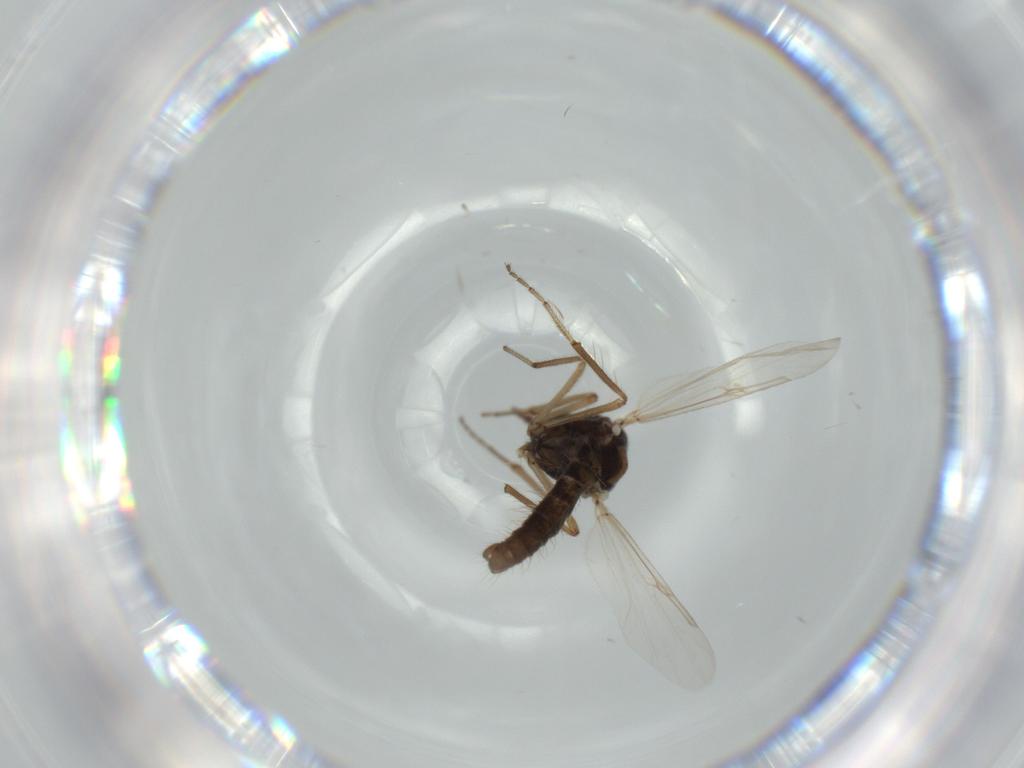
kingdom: Animalia
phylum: Arthropoda
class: Insecta
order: Diptera
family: Ceratopogonidae
